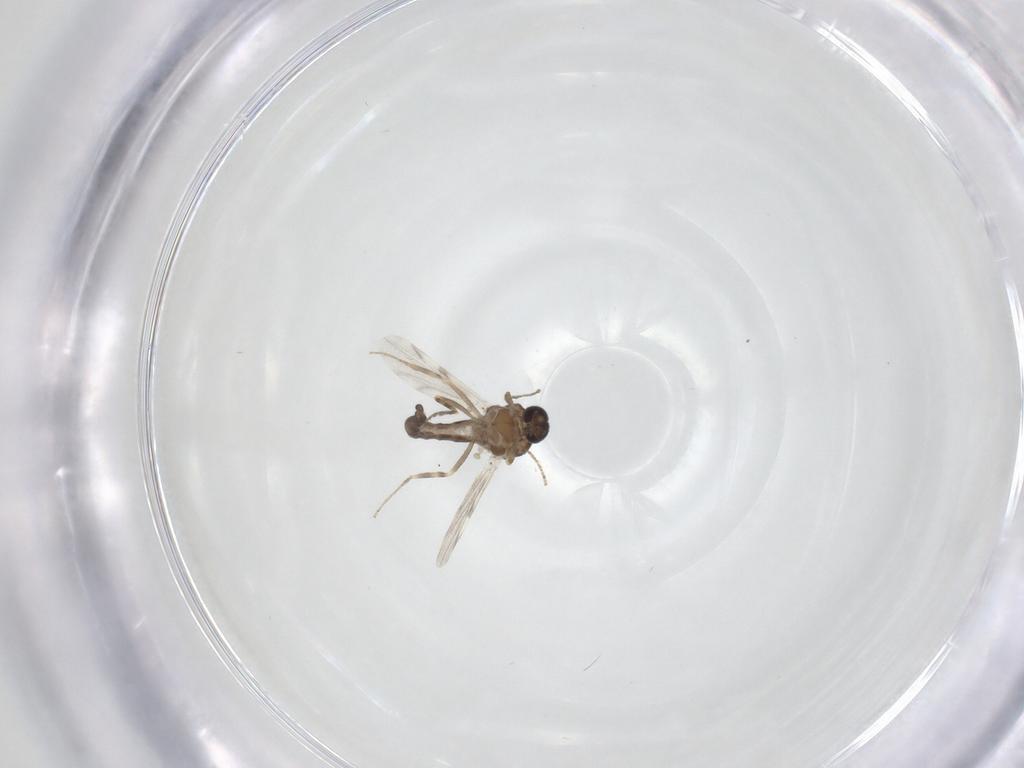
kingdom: Animalia
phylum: Arthropoda
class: Insecta
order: Diptera
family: Ceratopogonidae
